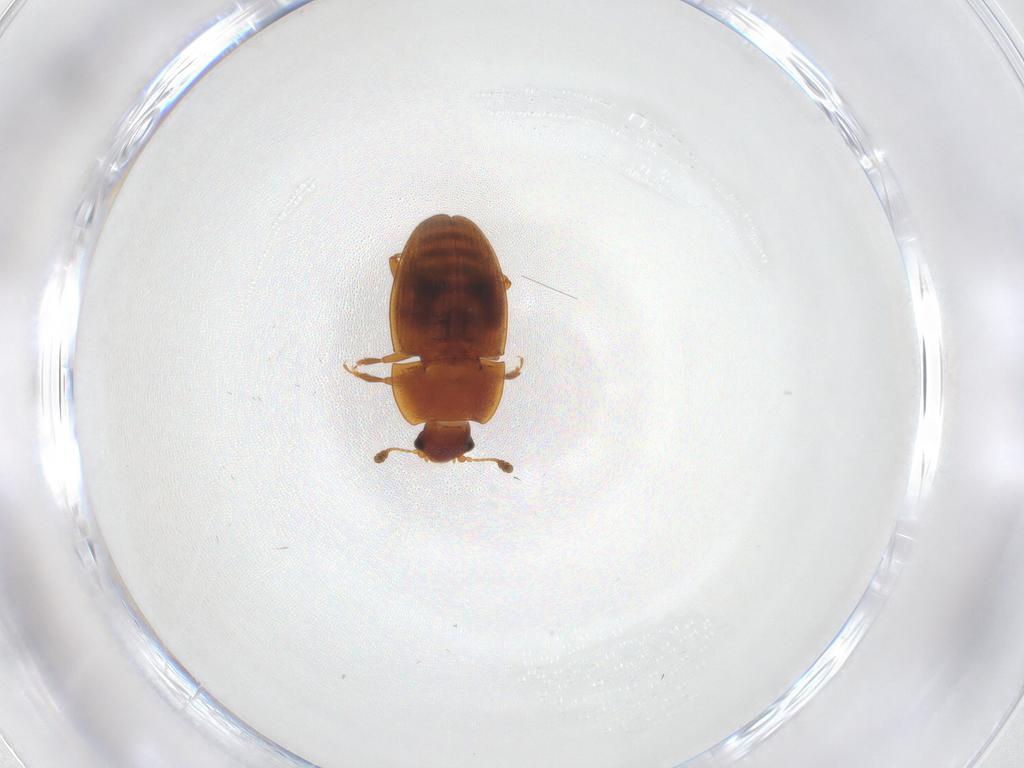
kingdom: Animalia
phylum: Arthropoda
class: Insecta
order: Coleoptera
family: Nitidulidae
